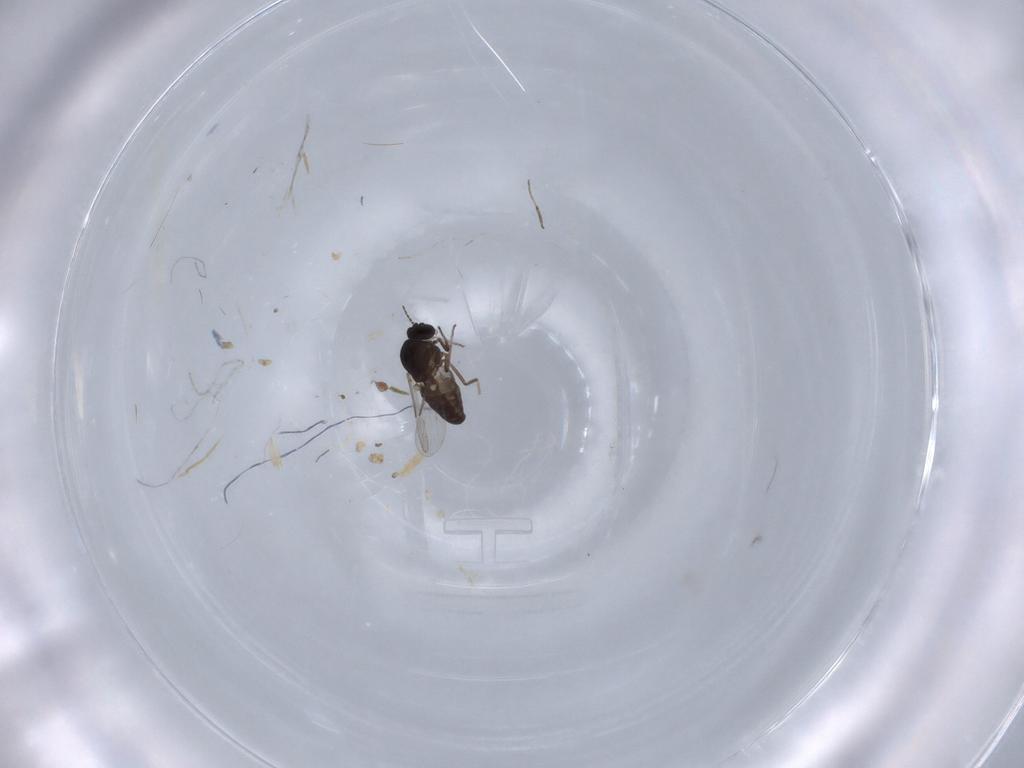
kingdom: Animalia
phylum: Arthropoda
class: Insecta
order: Diptera
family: Ceratopogonidae
